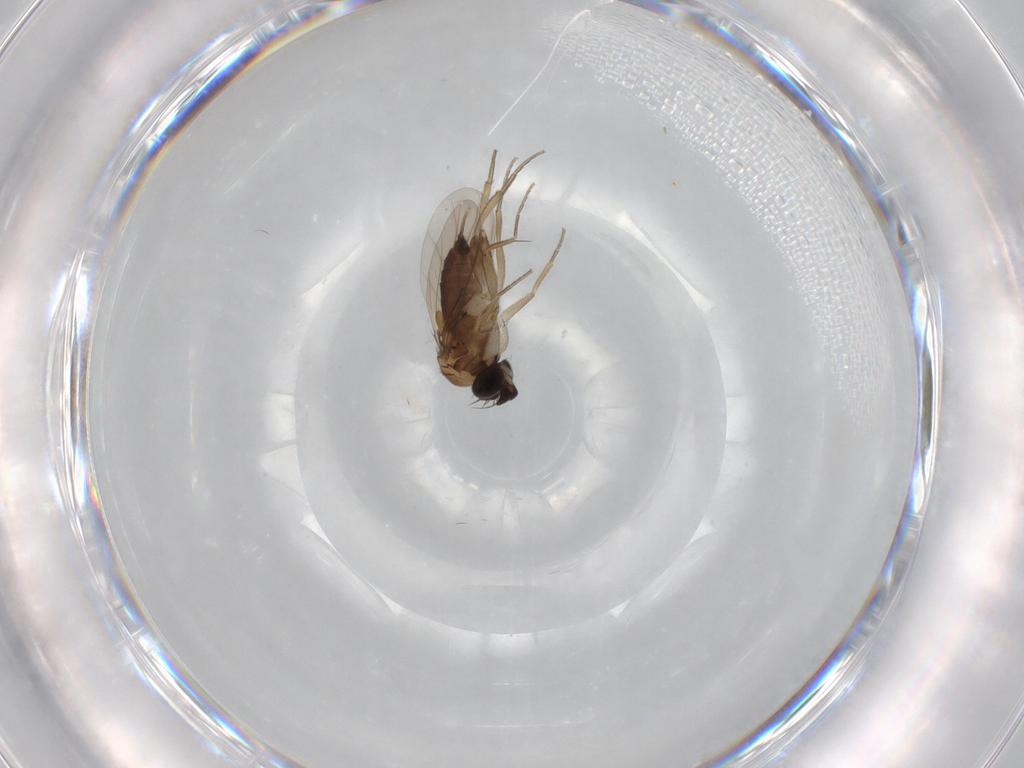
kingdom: Animalia
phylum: Arthropoda
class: Insecta
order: Diptera
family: Phoridae
